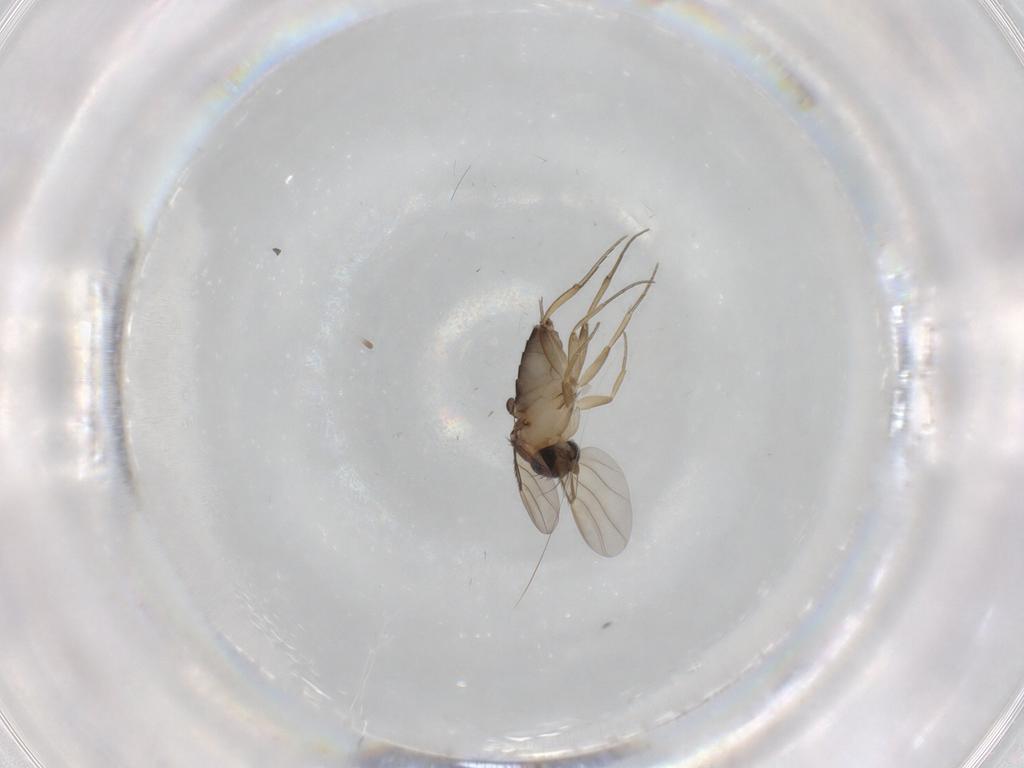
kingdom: Animalia
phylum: Arthropoda
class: Insecta
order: Diptera
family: Phoridae
